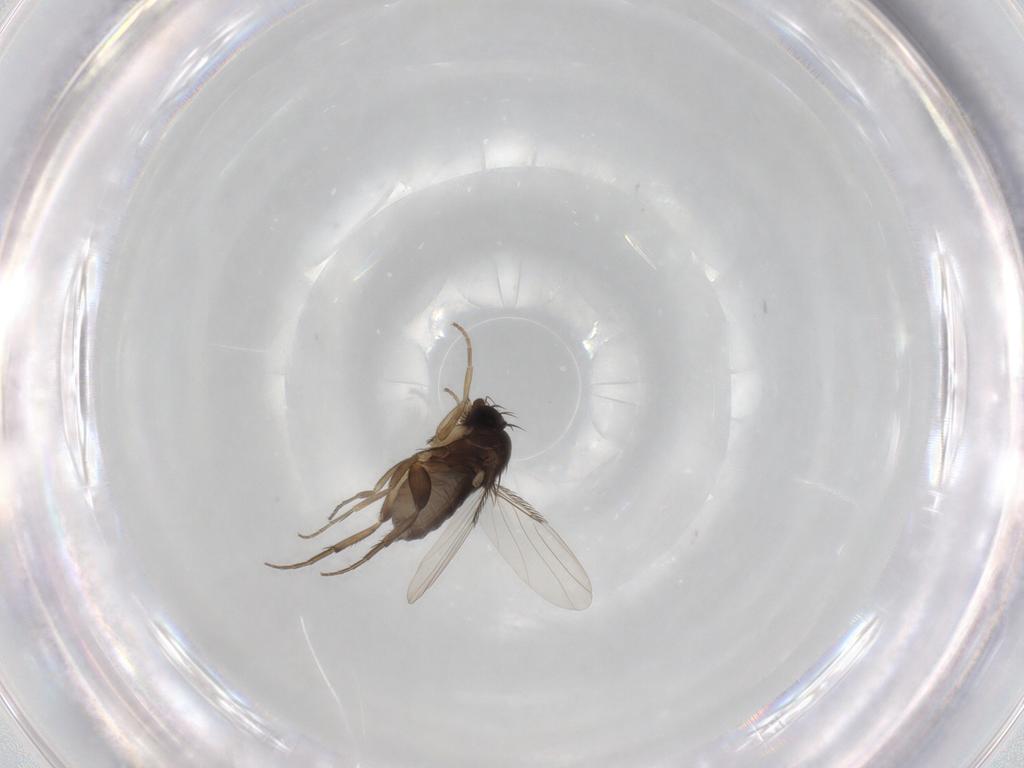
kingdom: Animalia
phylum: Arthropoda
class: Insecta
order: Diptera
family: Phoridae
